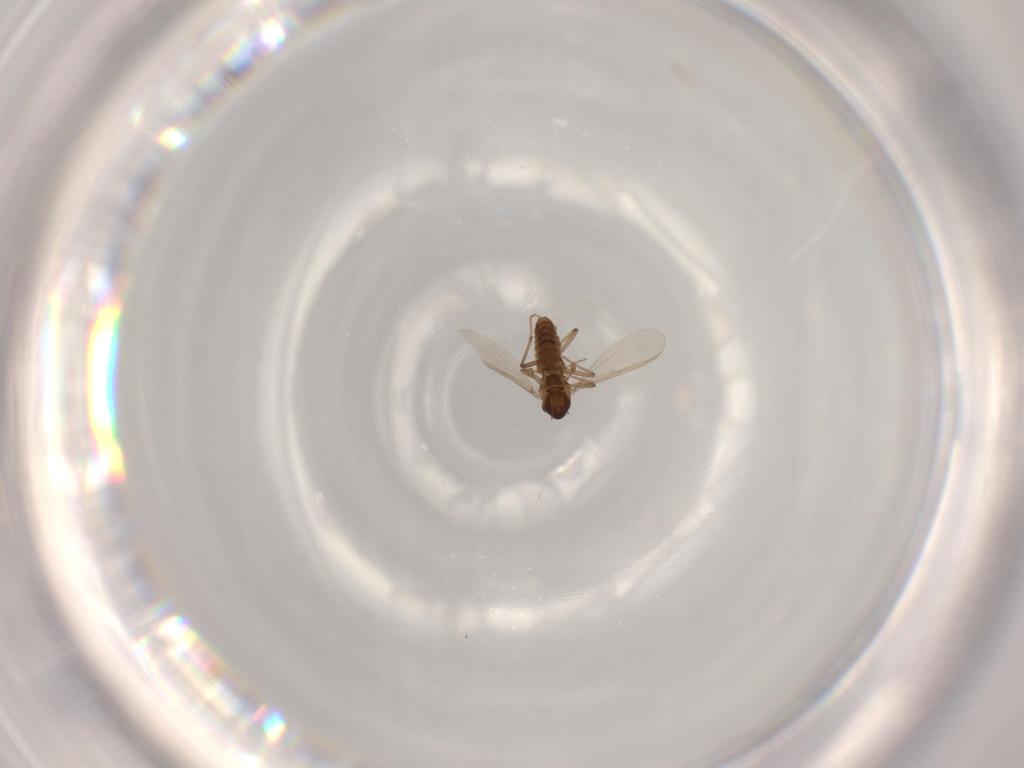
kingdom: Animalia
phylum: Arthropoda
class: Insecta
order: Diptera
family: Chironomidae
